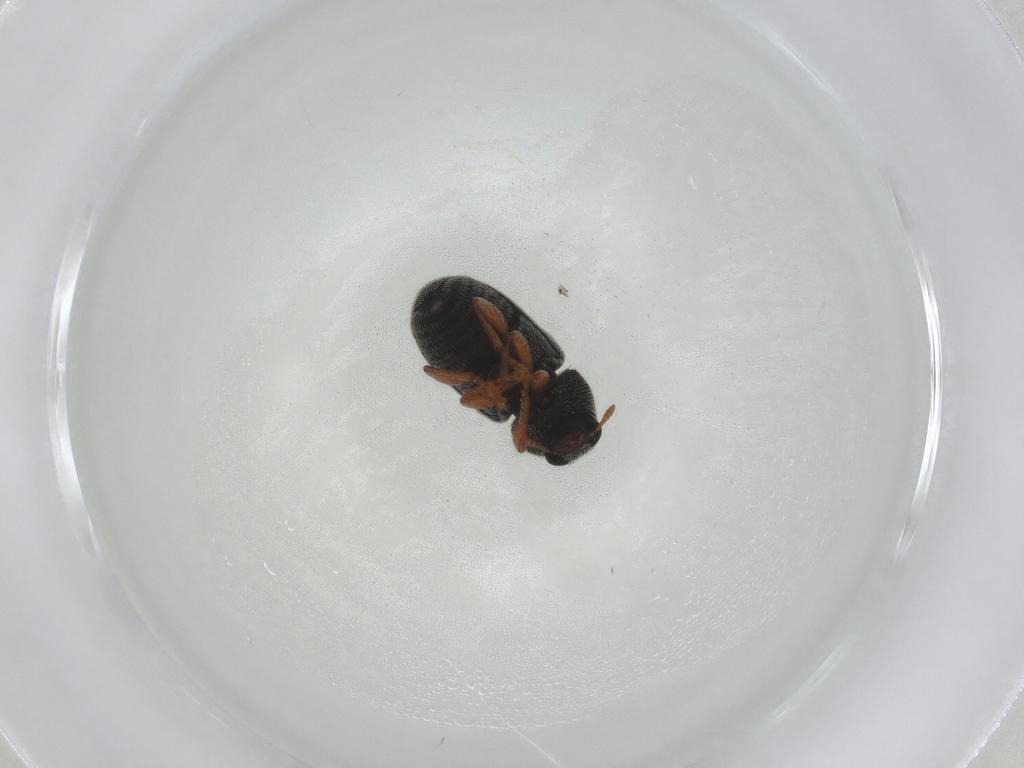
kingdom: Animalia
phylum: Arthropoda
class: Insecta
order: Coleoptera
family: Anthribidae
